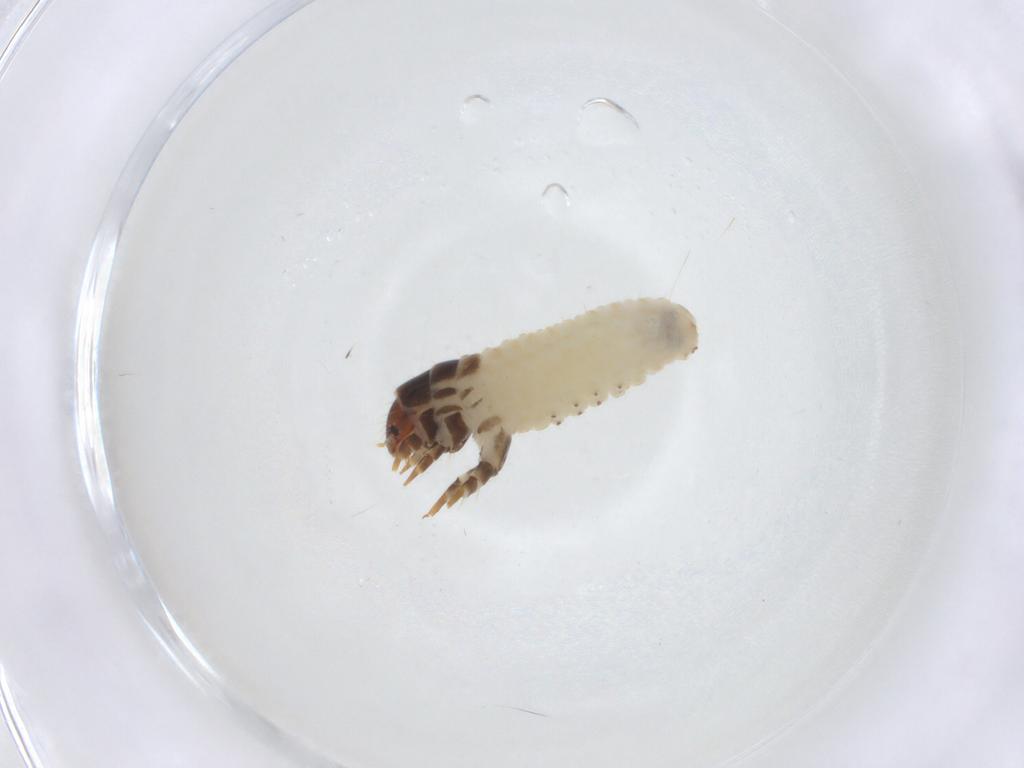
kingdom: Animalia
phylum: Arthropoda
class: Insecta
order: Lepidoptera
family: Psychidae
